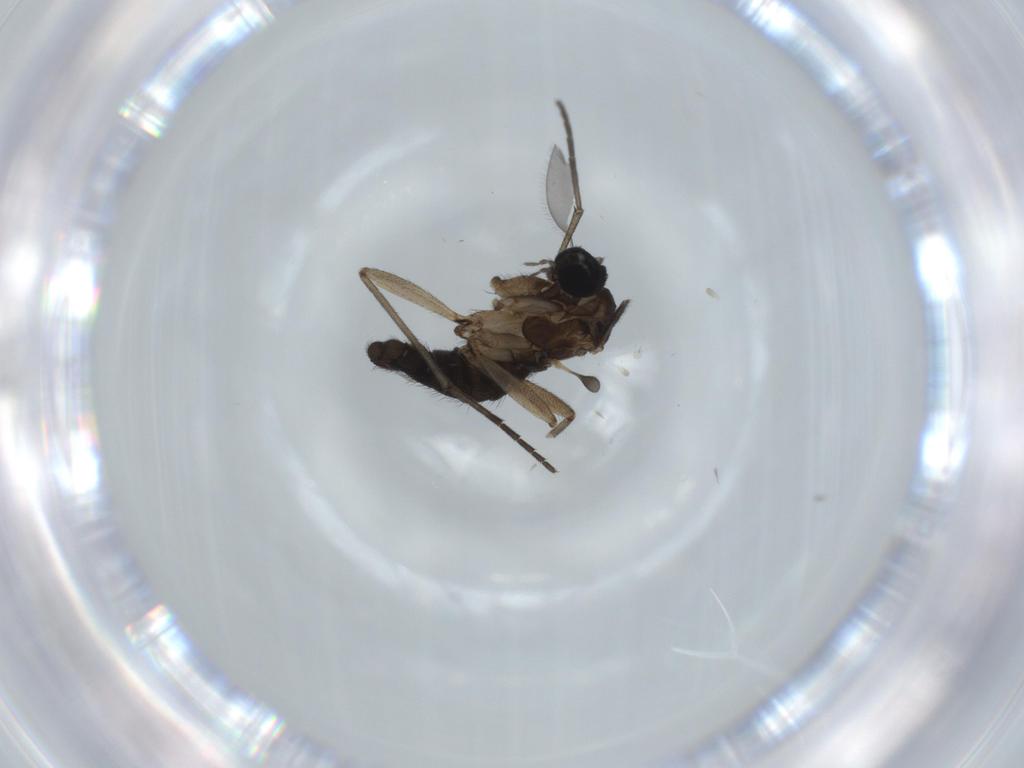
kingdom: Animalia
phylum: Arthropoda
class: Insecta
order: Diptera
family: Sciaridae
